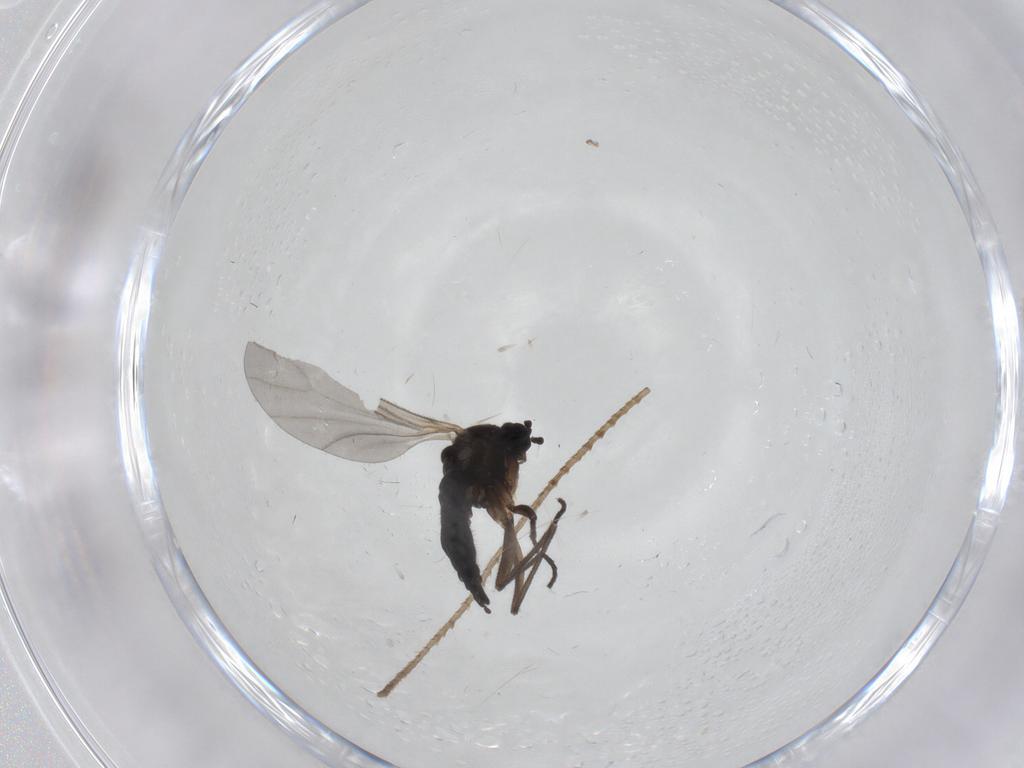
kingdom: Animalia
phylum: Arthropoda
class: Insecta
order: Diptera
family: Sciaridae
